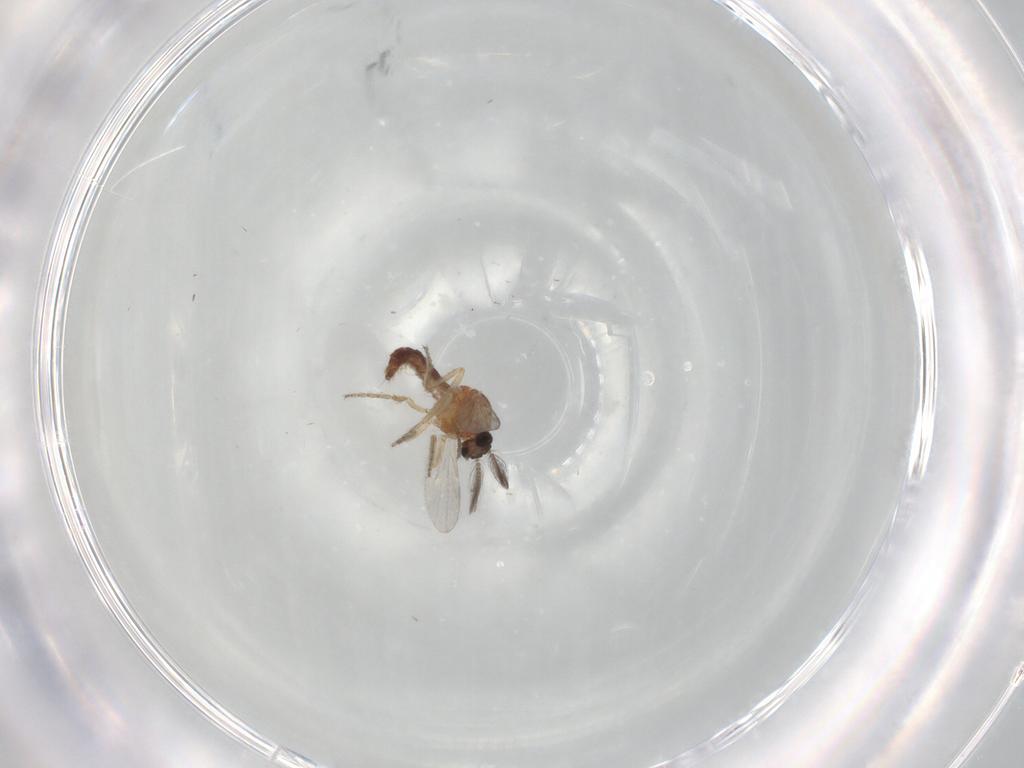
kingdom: Animalia
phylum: Arthropoda
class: Insecta
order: Diptera
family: Ceratopogonidae
